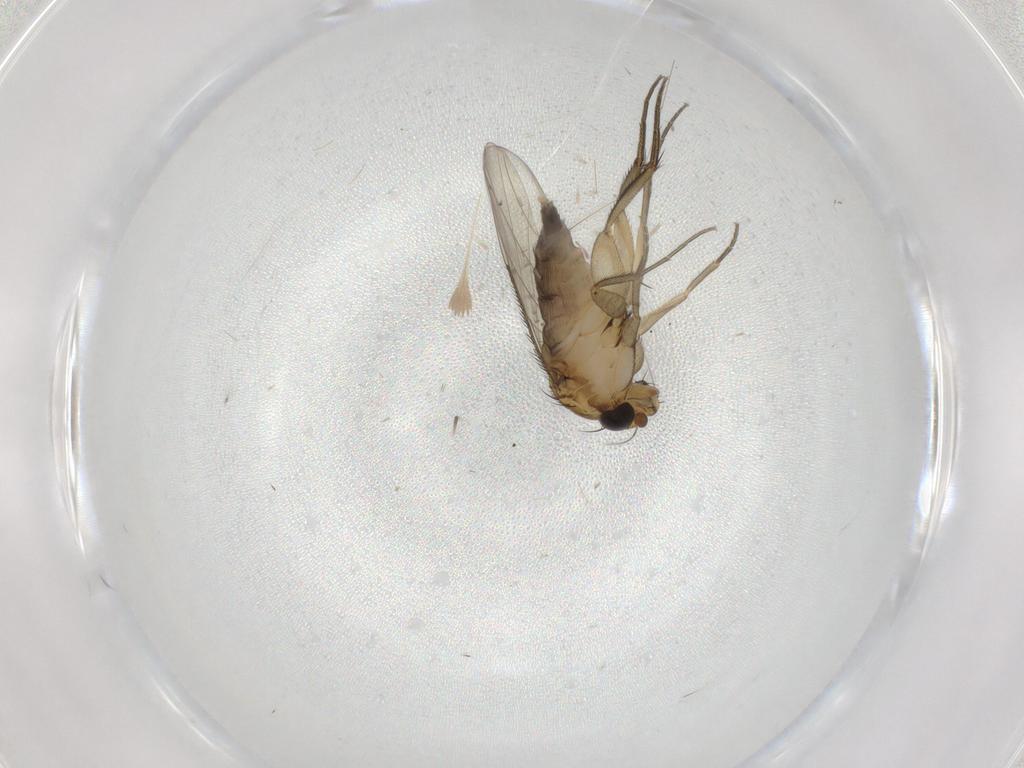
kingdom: Animalia
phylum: Arthropoda
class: Insecta
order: Diptera
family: Phoridae
